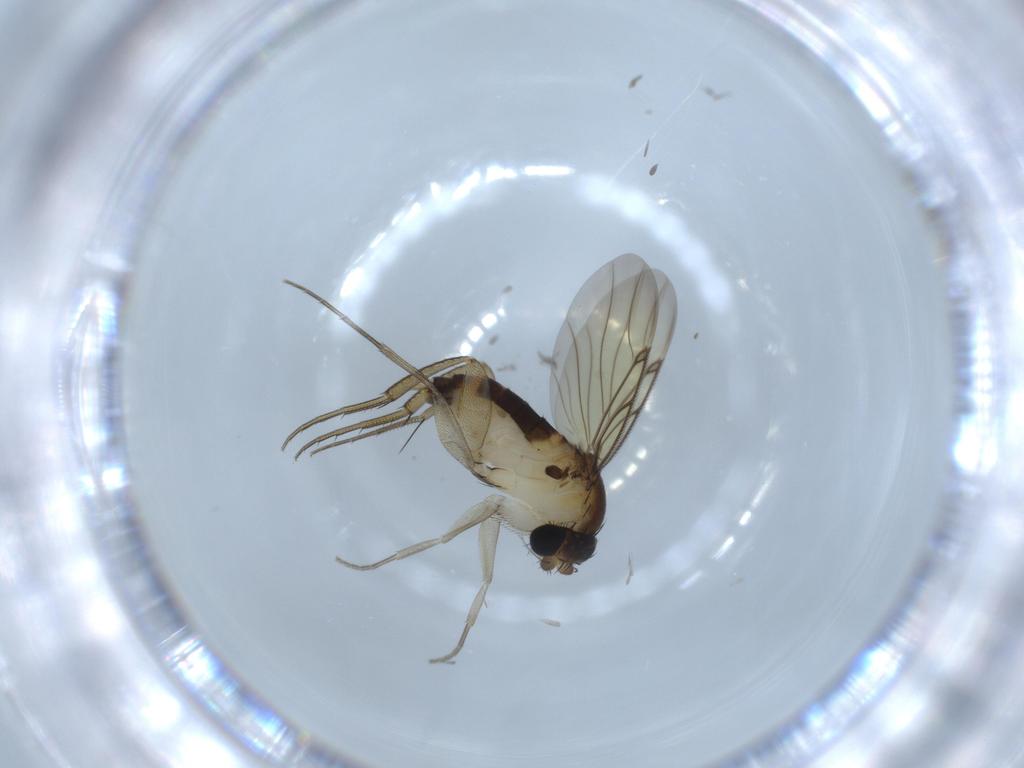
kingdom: Animalia
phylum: Arthropoda
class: Insecta
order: Diptera
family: Phoridae
